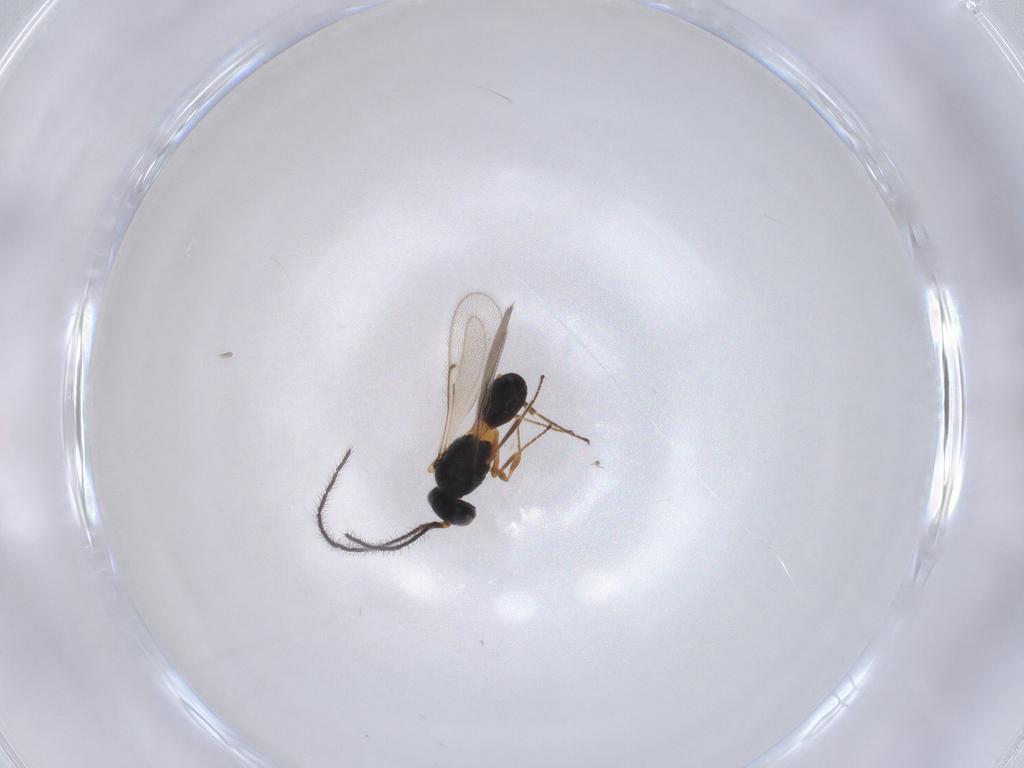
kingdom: Animalia
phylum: Arthropoda
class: Insecta
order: Hymenoptera
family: Scelionidae
